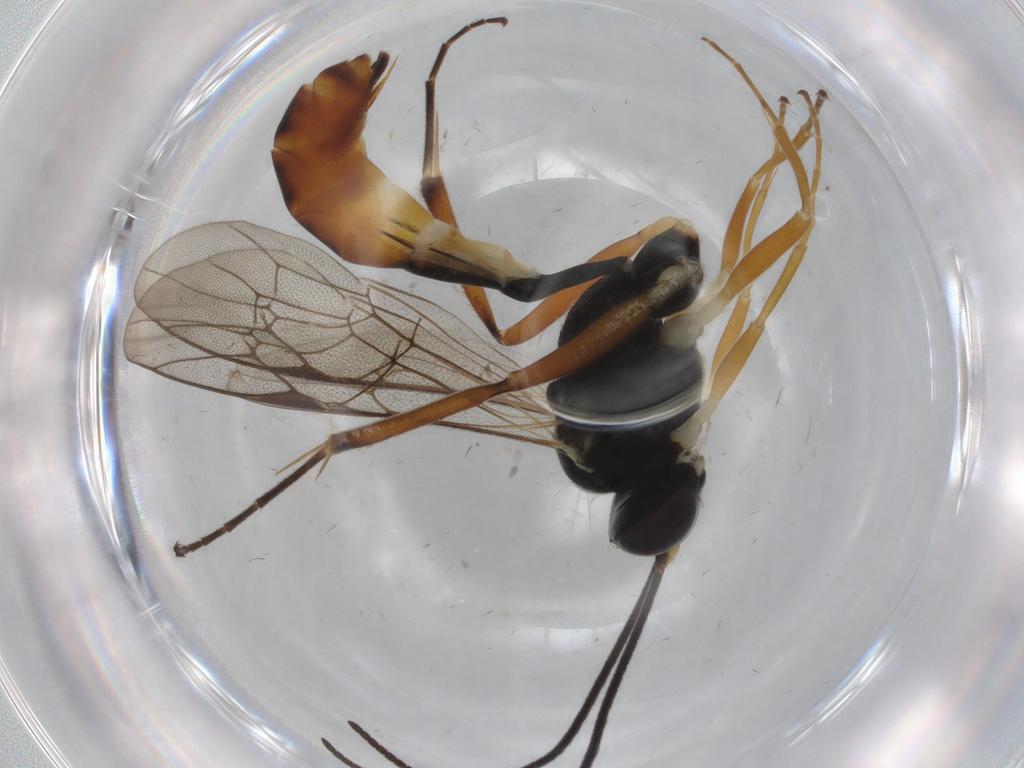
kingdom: Animalia
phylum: Arthropoda
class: Insecta
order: Hymenoptera
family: Ichneumonidae
